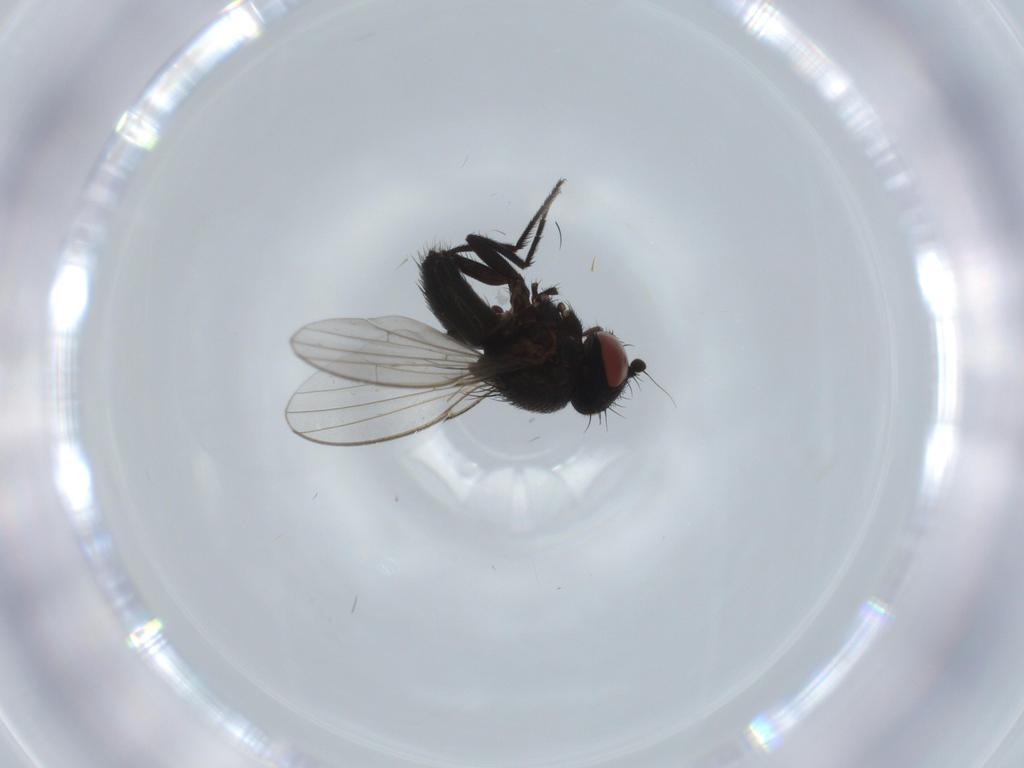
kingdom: Animalia
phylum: Arthropoda
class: Insecta
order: Diptera
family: Milichiidae
